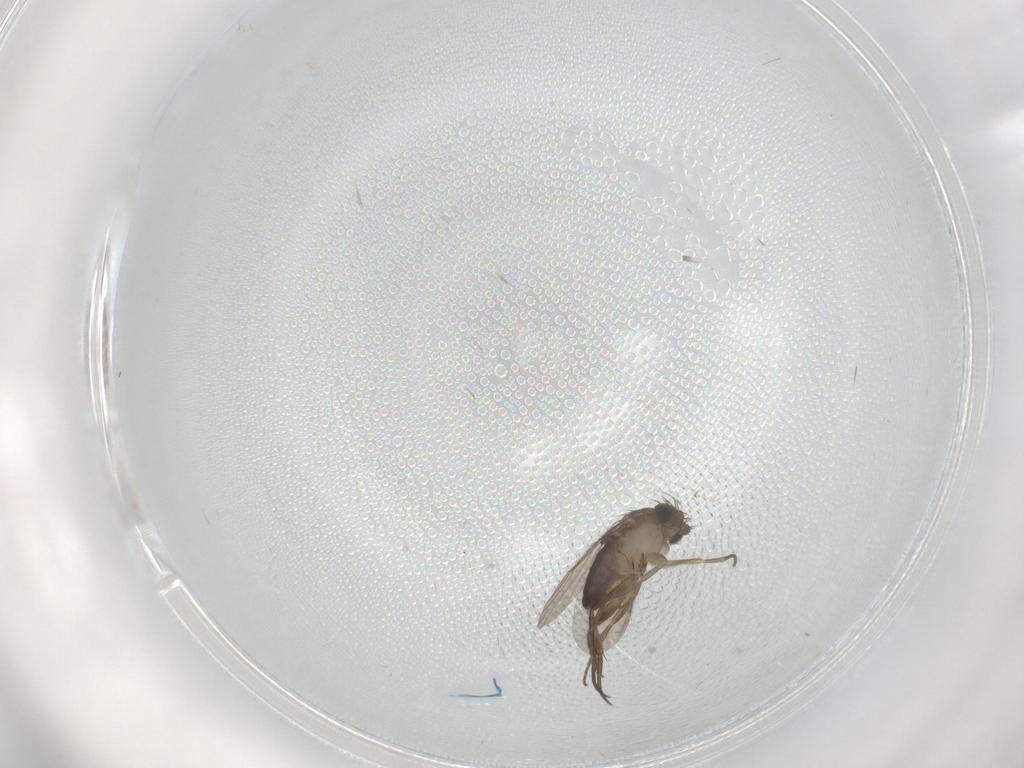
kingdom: Animalia
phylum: Arthropoda
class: Insecta
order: Diptera
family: Phoridae
